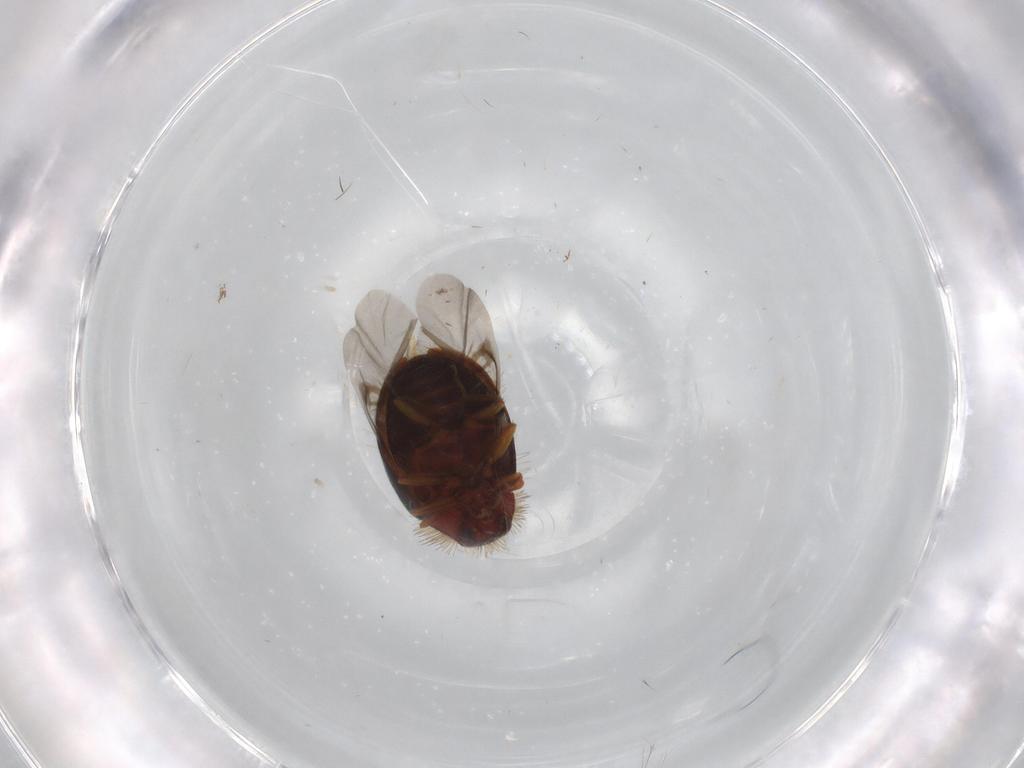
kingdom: Animalia
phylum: Arthropoda
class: Insecta
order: Coleoptera
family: Dermestidae
